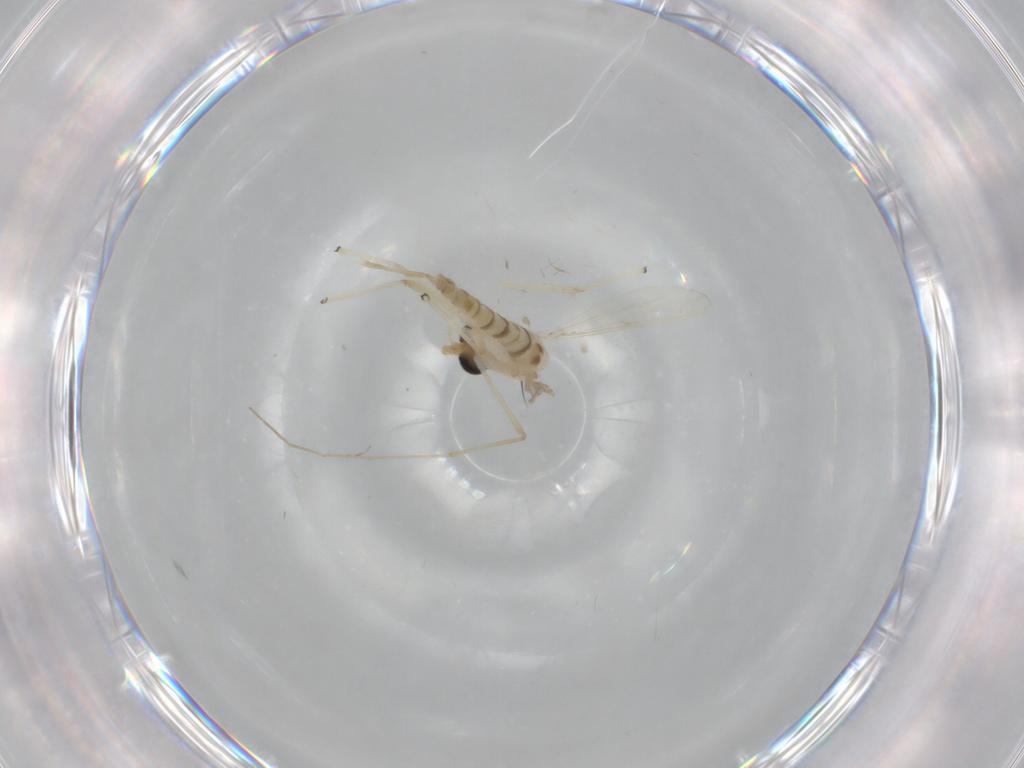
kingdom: Animalia
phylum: Arthropoda
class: Insecta
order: Diptera
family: Chironomidae
